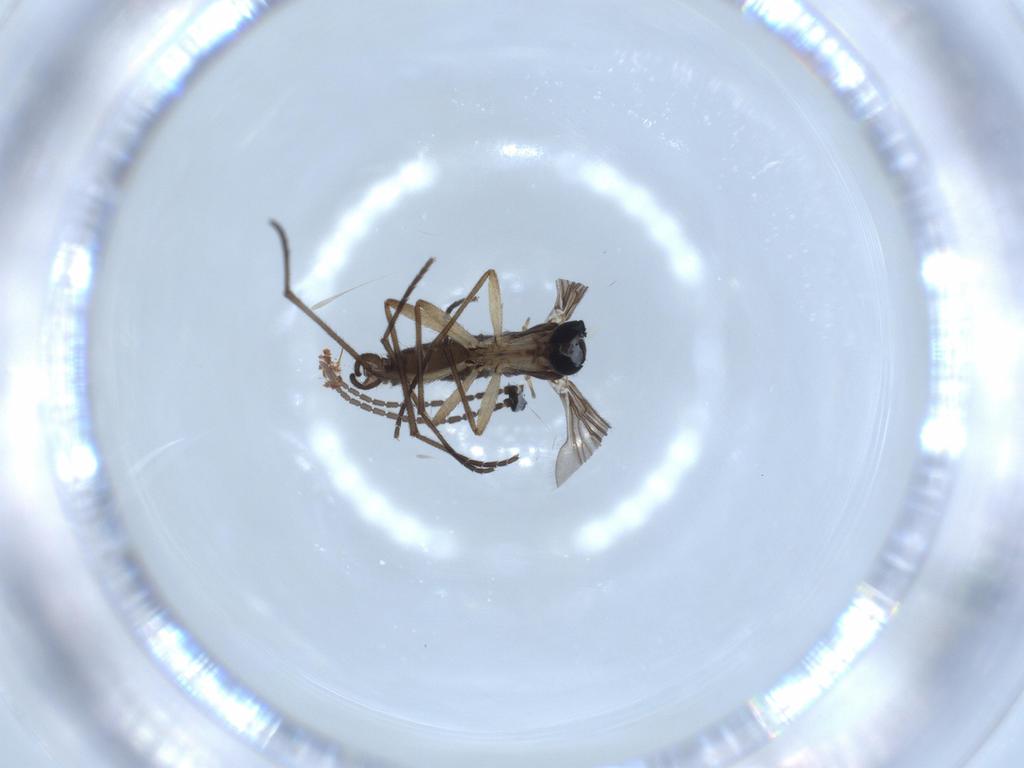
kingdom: Animalia
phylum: Arthropoda
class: Insecta
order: Diptera
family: Sciaridae
